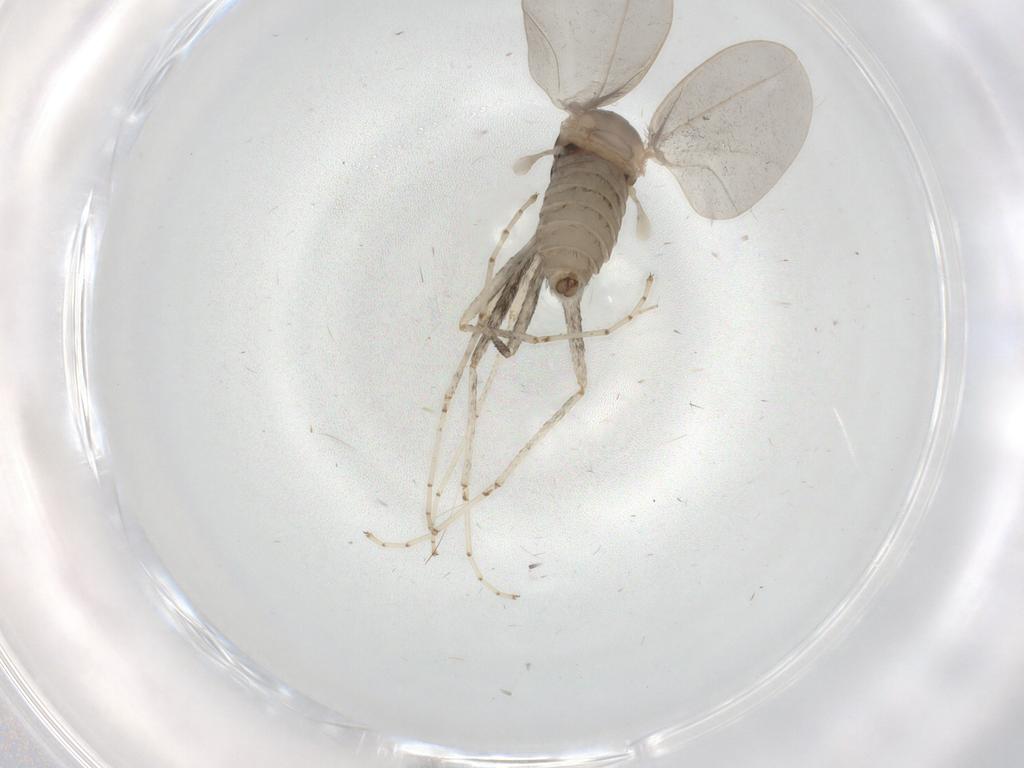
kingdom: Animalia
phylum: Arthropoda
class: Insecta
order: Diptera
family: Cecidomyiidae
